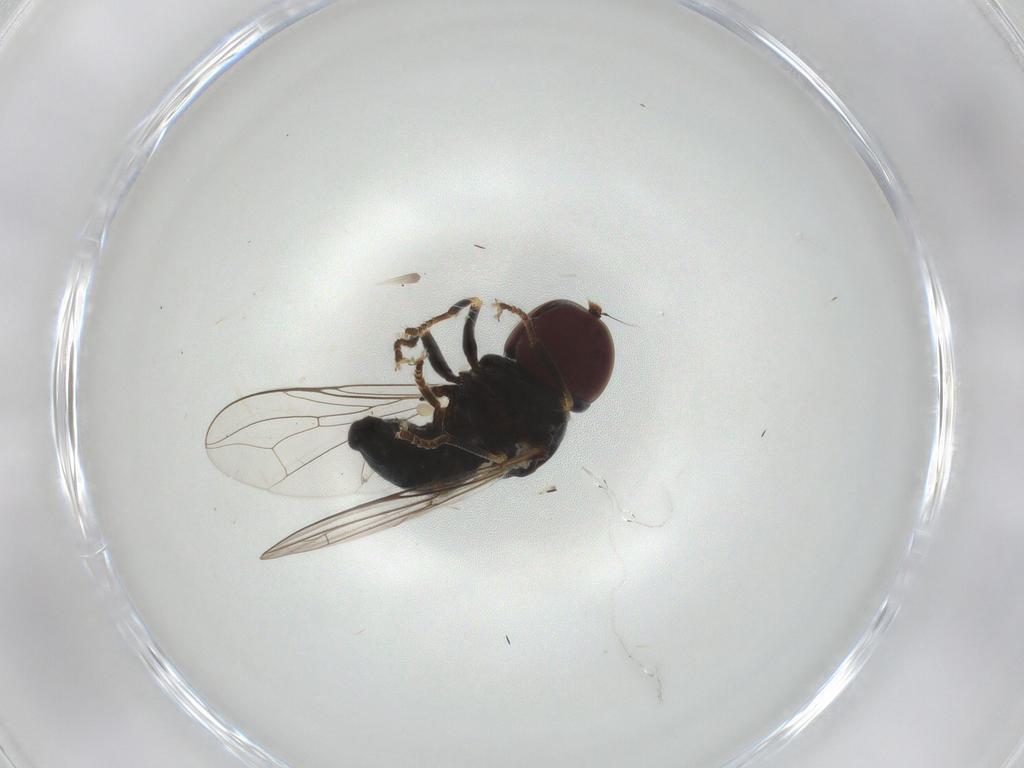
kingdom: Animalia
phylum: Arthropoda
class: Insecta
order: Diptera
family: Pipunculidae
